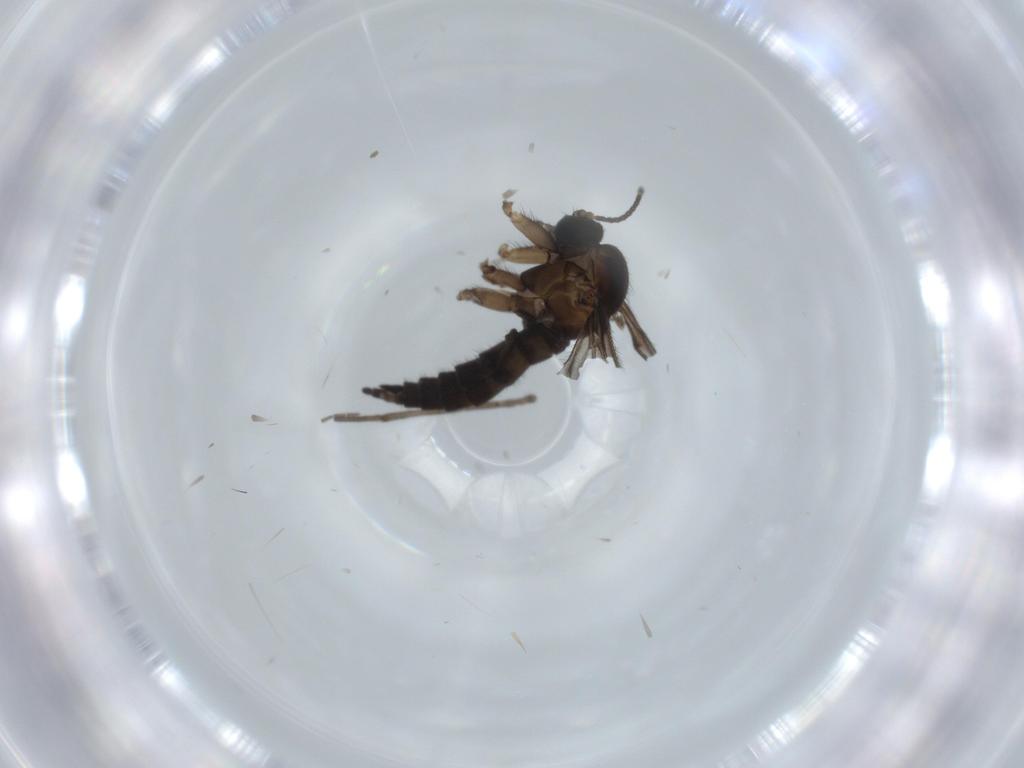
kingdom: Animalia
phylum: Arthropoda
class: Insecta
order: Diptera
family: Sciaridae
